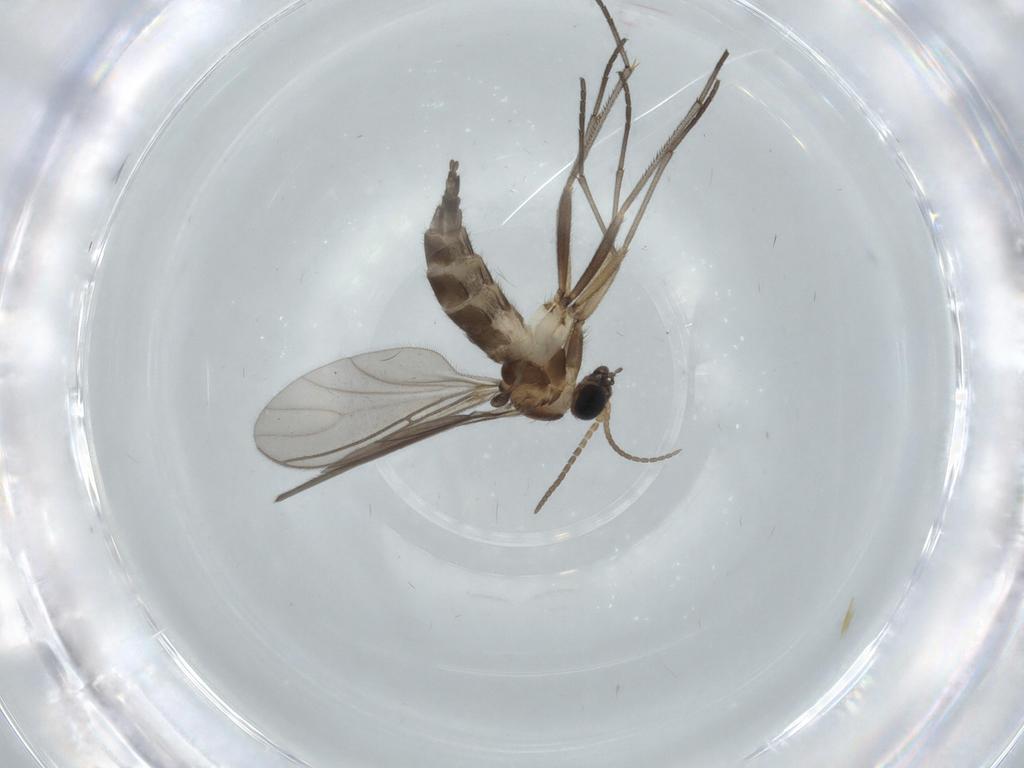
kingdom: Animalia
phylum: Arthropoda
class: Insecta
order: Diptera
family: Sciaridae
